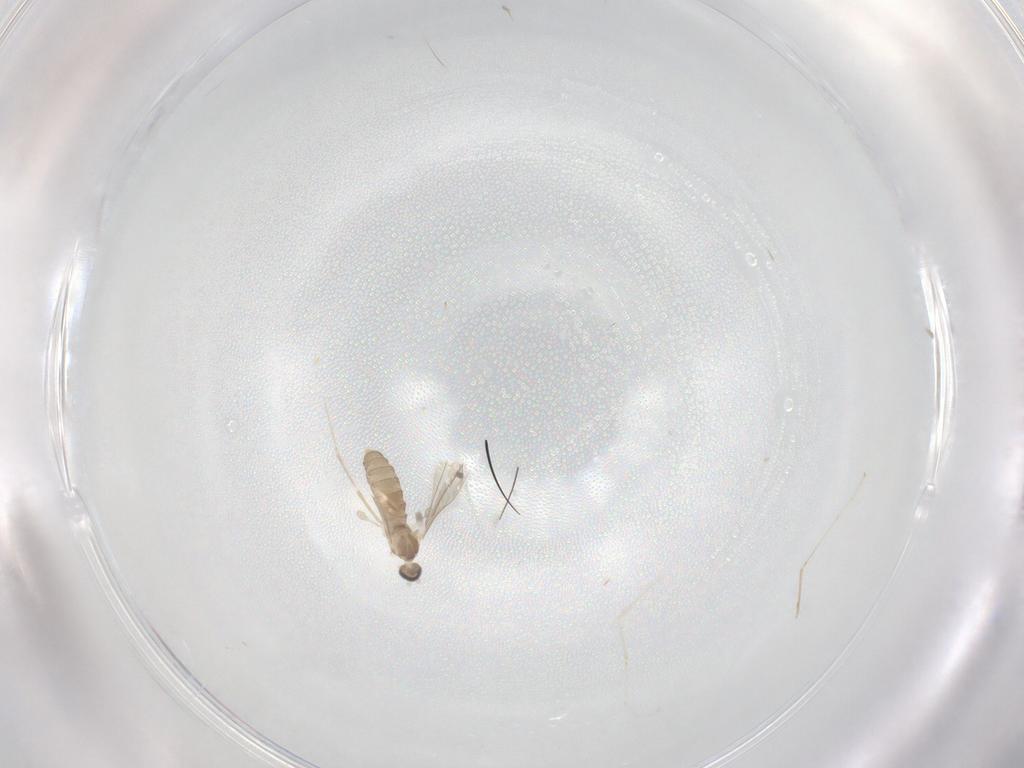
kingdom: Animalia
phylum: Arthropoda
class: Insecta
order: Diptera
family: Cecidomyiidae
